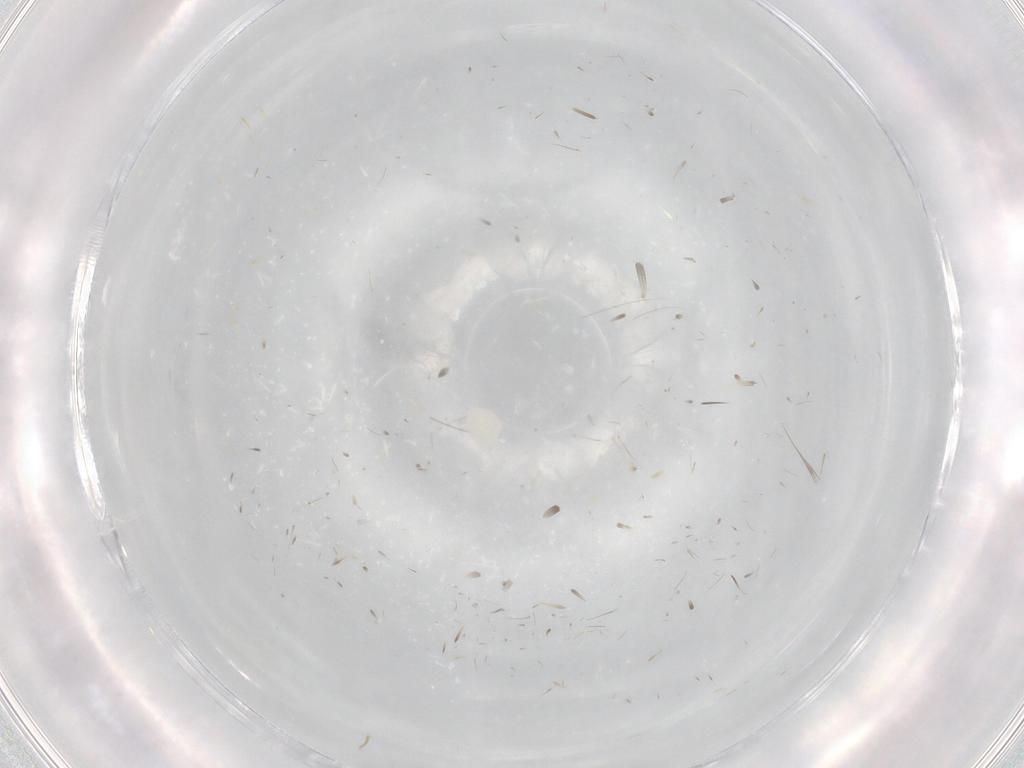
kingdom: Animalia
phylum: Arthropoda
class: Insecta
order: Psocodea
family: Lepidopsocidae
